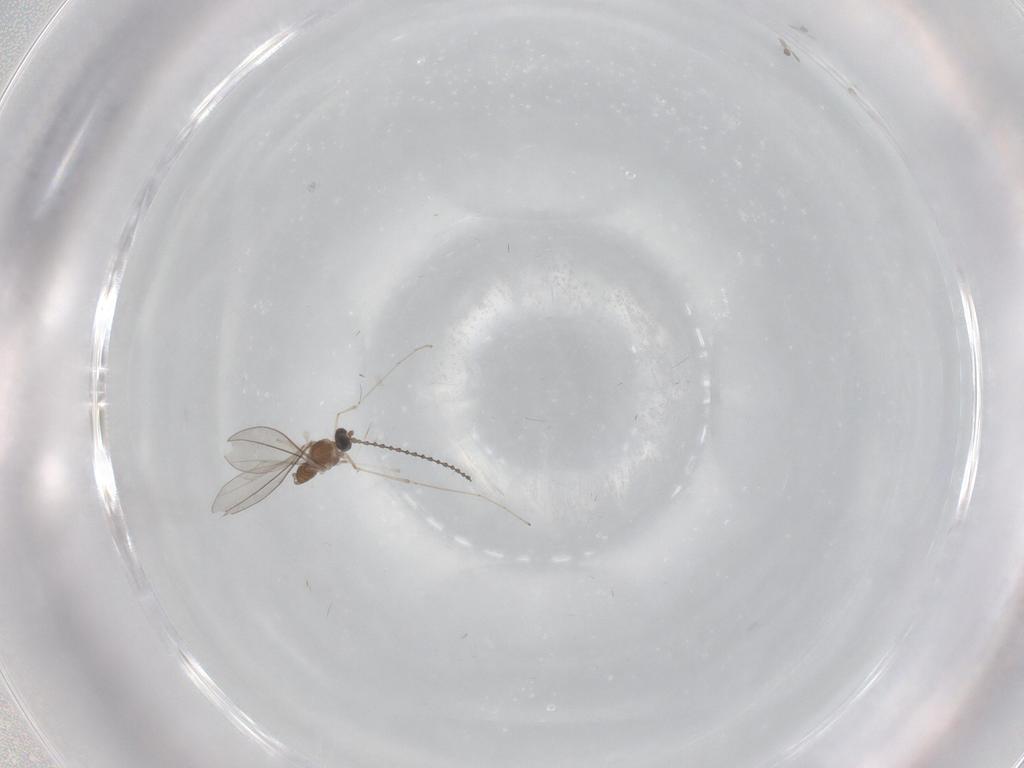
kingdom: Animalia
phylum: Arthropoda
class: Insecta
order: Diptera
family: Cecidomyiidae
